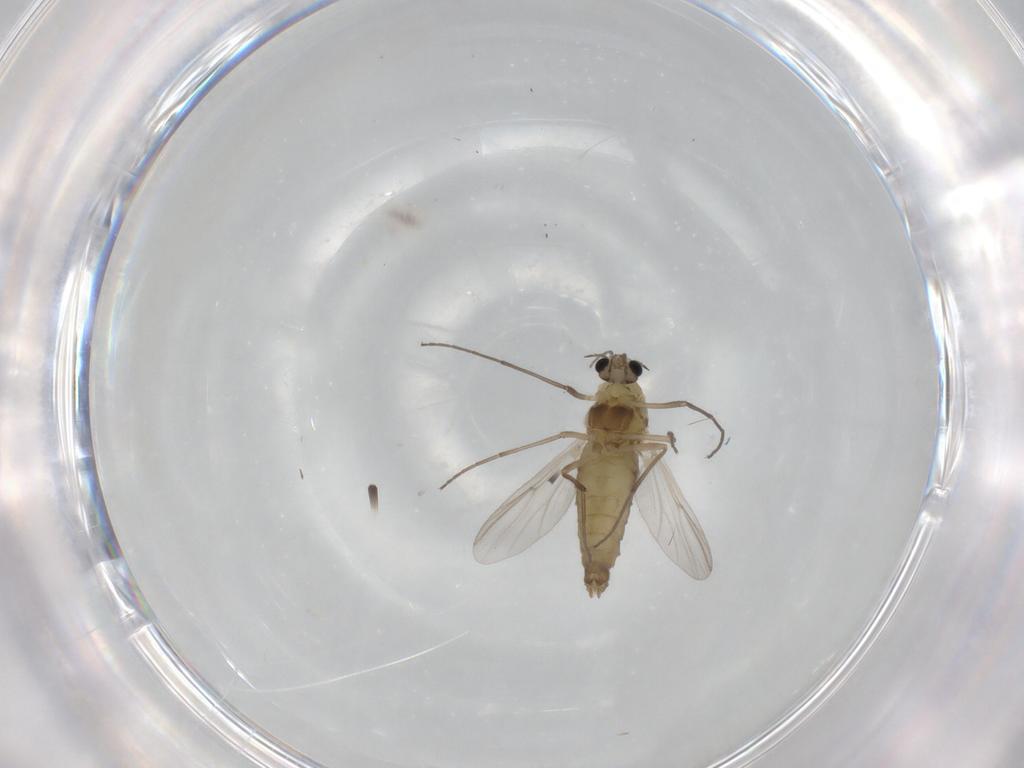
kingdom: Animalia
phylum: Arthropoda
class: Insecta
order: Diptera
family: Chironomidae
